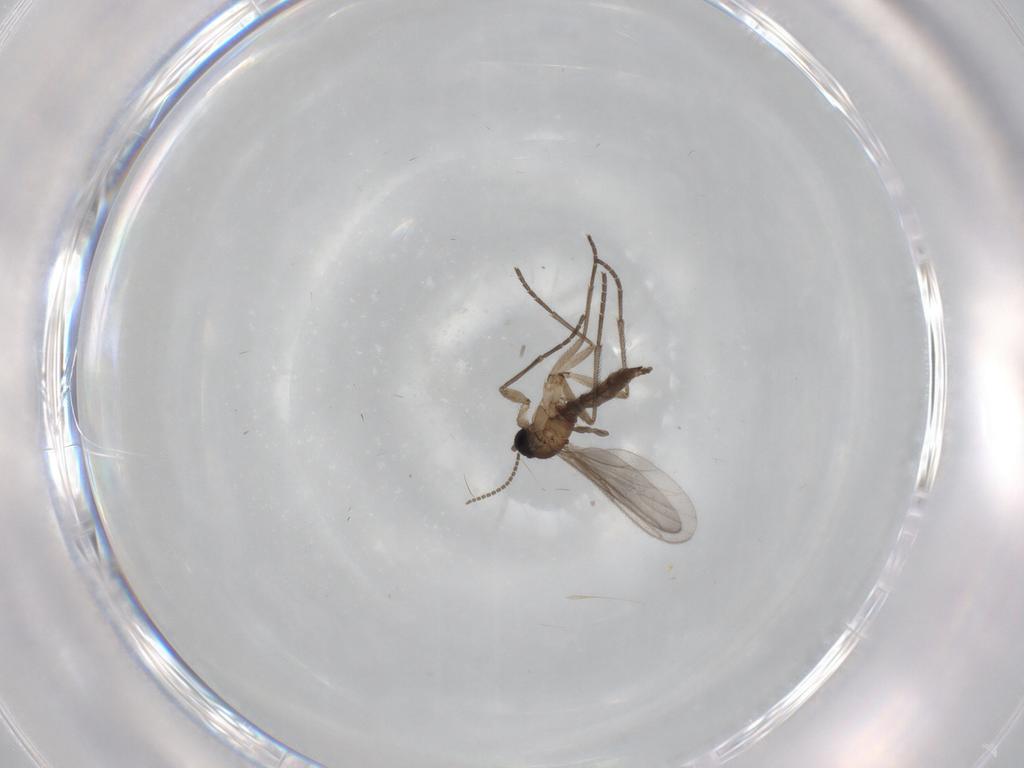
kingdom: Animalia
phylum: Arthropoda
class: Insecta
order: Diptera
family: Sciaridae
